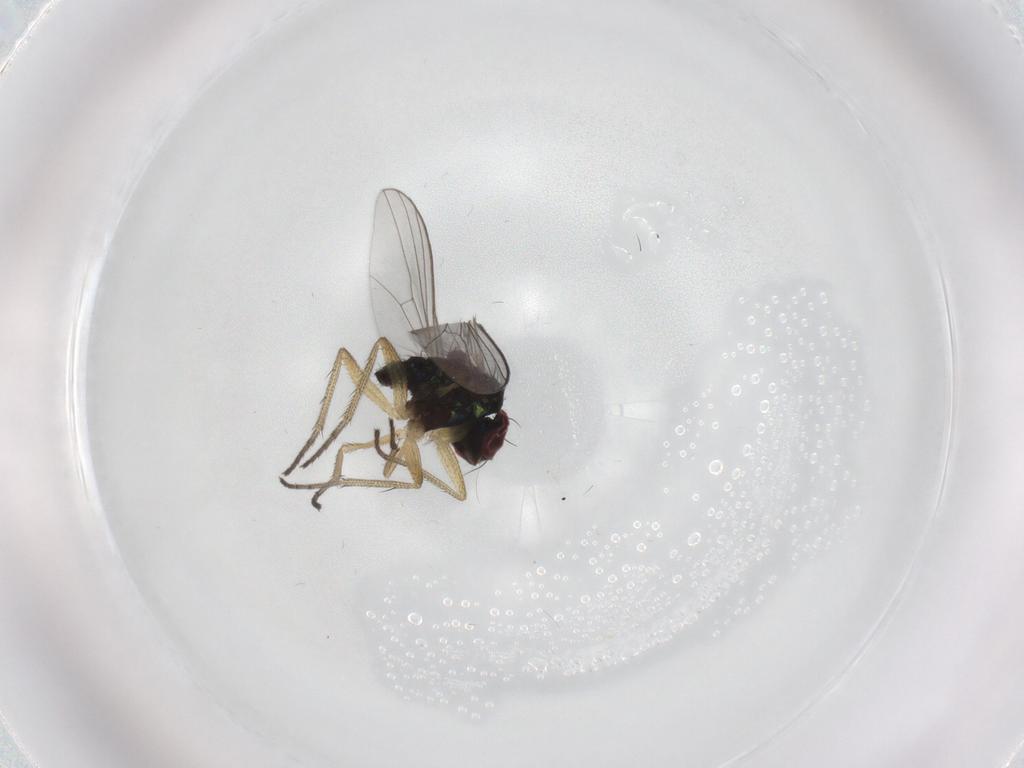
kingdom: Animalia
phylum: Arthropoda
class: Insecta
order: Diptera
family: Dolichopodidae
